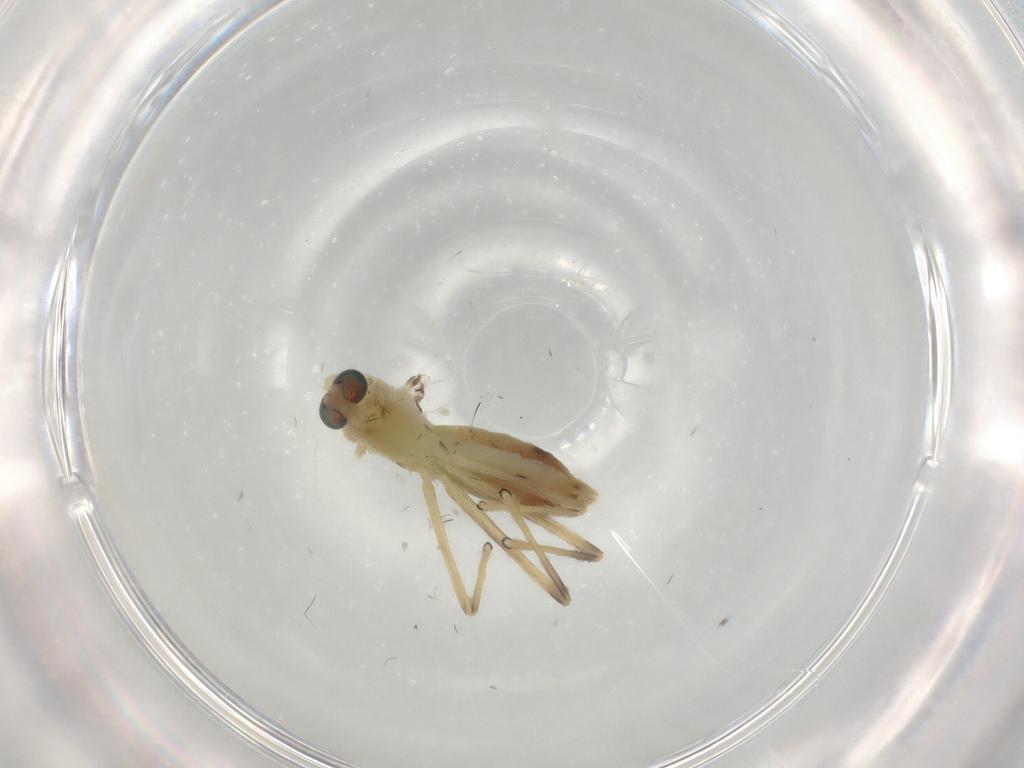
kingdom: Animalia
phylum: Arthropoda
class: Insecta
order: Diptera
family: Chironomidae
